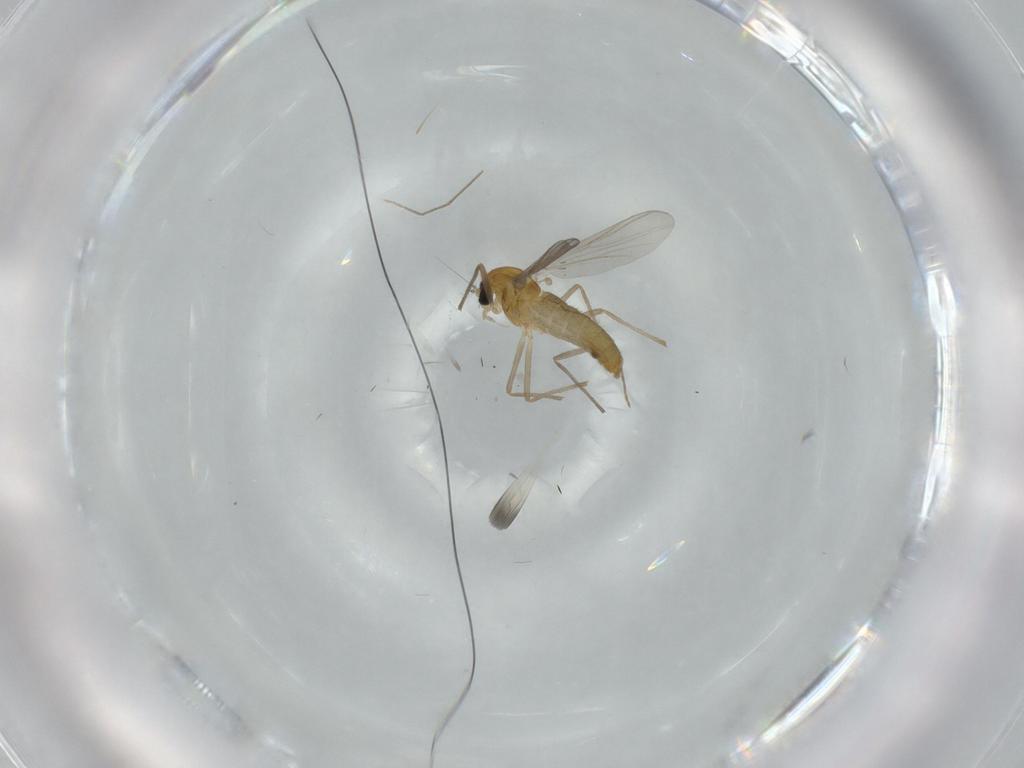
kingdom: Animalia
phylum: Arthropoda
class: Insecta
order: Diptera
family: Chironomidae
